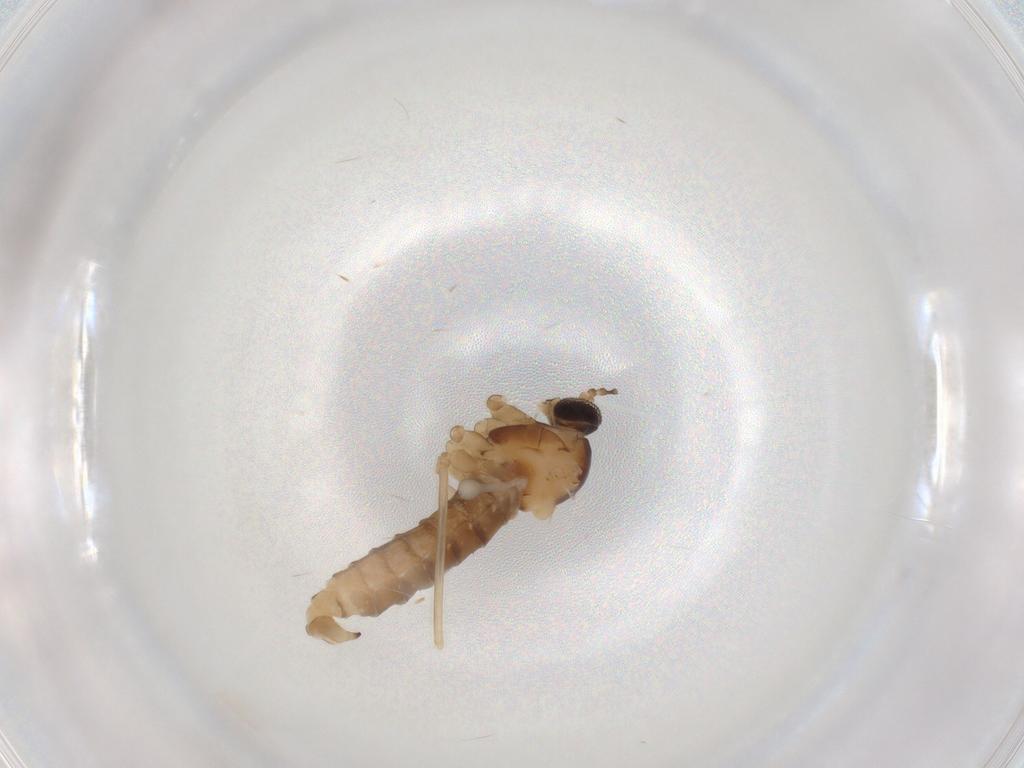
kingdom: Animalia
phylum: Arthropoda
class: Insecta
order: Diptera
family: Cecidomyiidae
